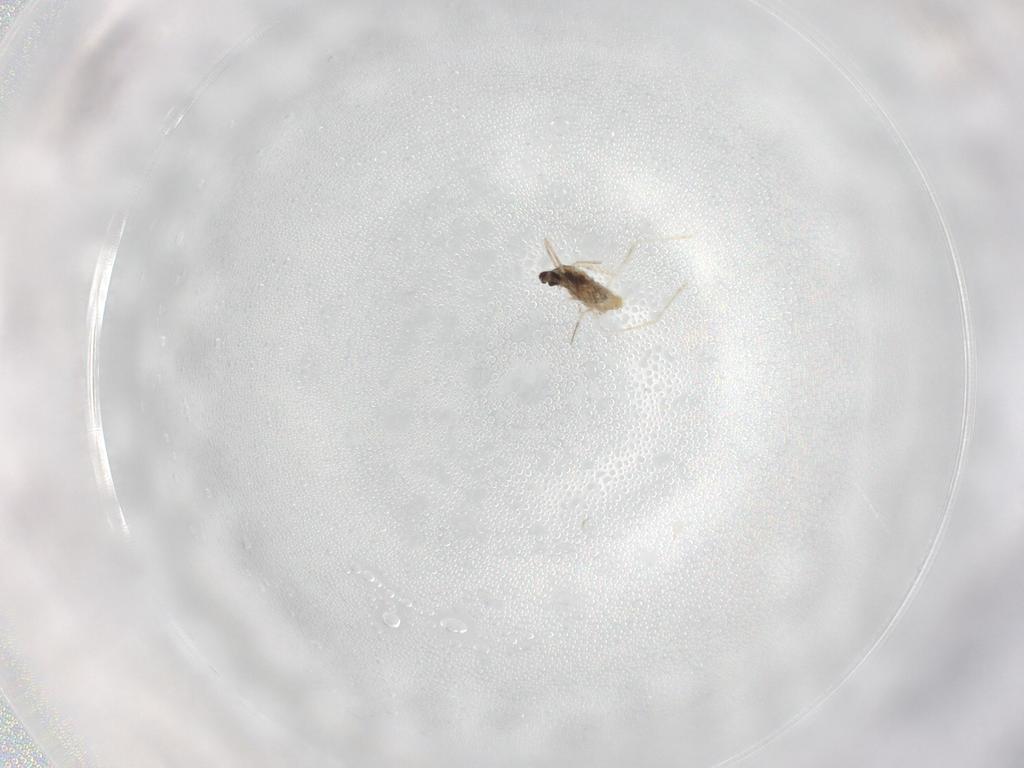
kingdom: Animalia
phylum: Arthropoda
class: Insecta
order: Diptera
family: Cecidomyiidae
